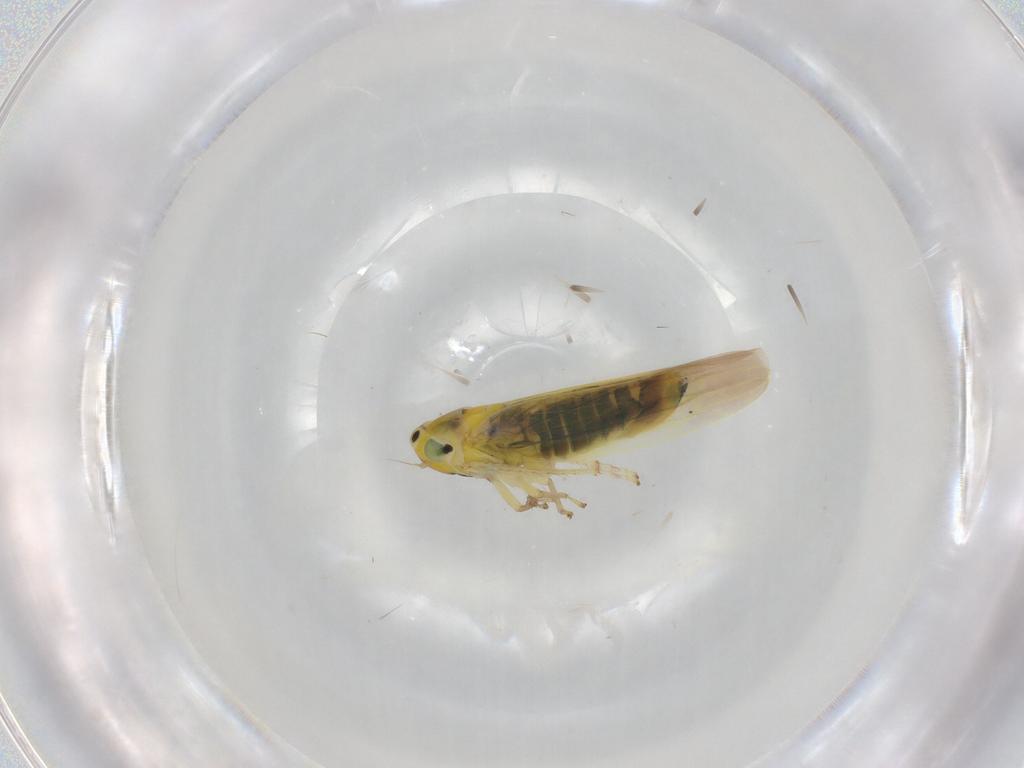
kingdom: Animalia
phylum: Arthropoda
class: Insecta
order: Hemiptera
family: Cicadellidae
